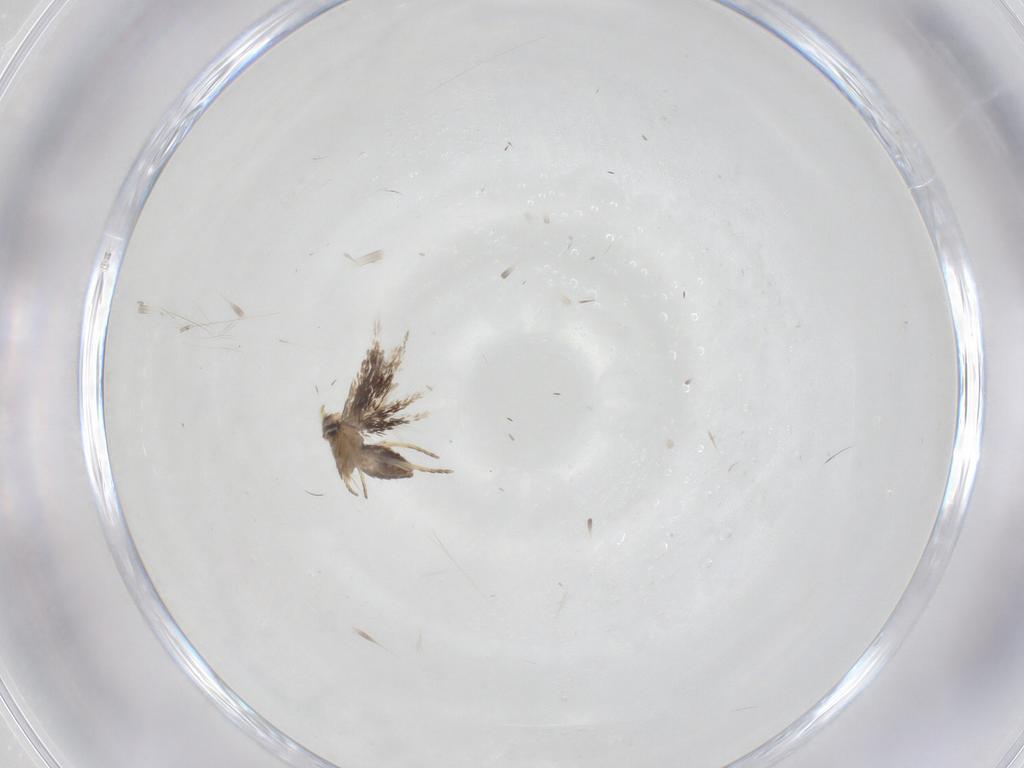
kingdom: Animalia
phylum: Arthropoda
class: Insecta
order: Lepidoptera
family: Nepticulidae
